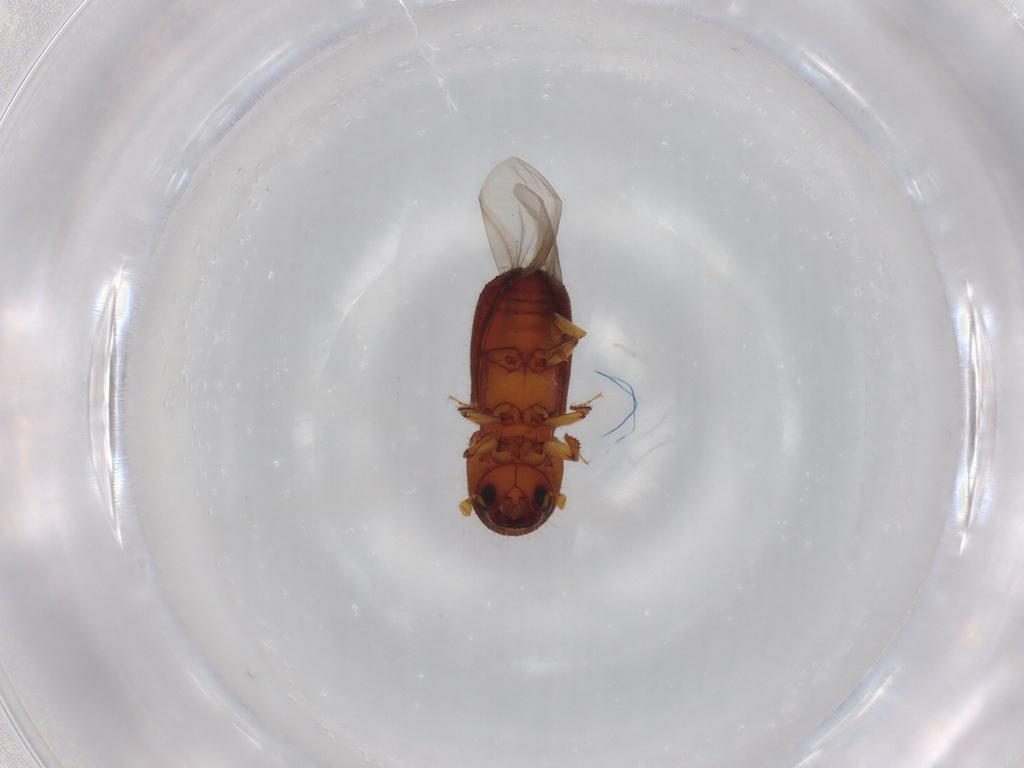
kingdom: Animalia
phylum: Arthropoda
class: Insecta
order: Coleoptera
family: Curculionidae
